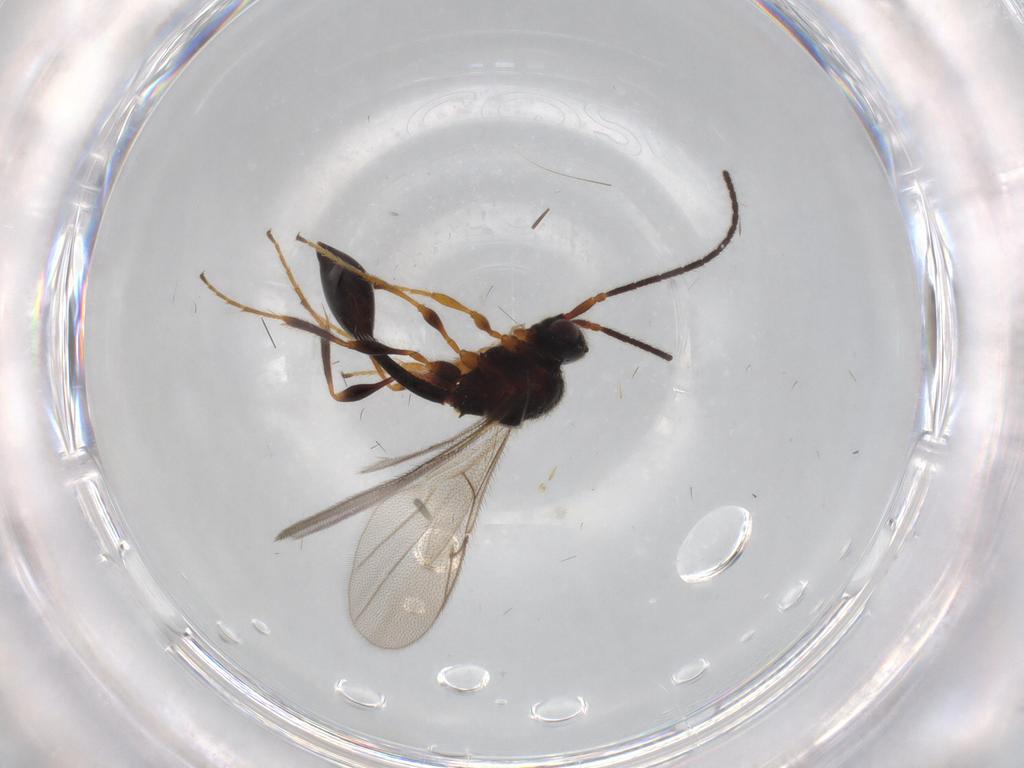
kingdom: Animalia
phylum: Arthropoda
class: Insecta
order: Hymenoptera
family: Diapriidae
